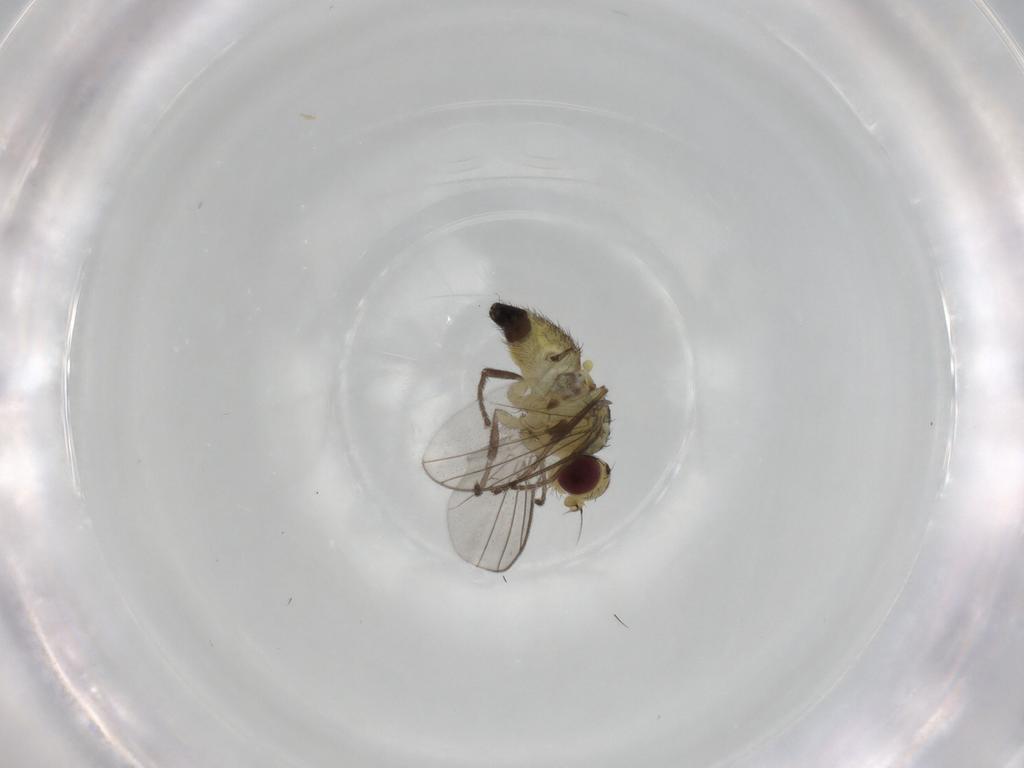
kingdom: Animalia
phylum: Arthropoda
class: Insecta
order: Diptera
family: Agromyzidae
